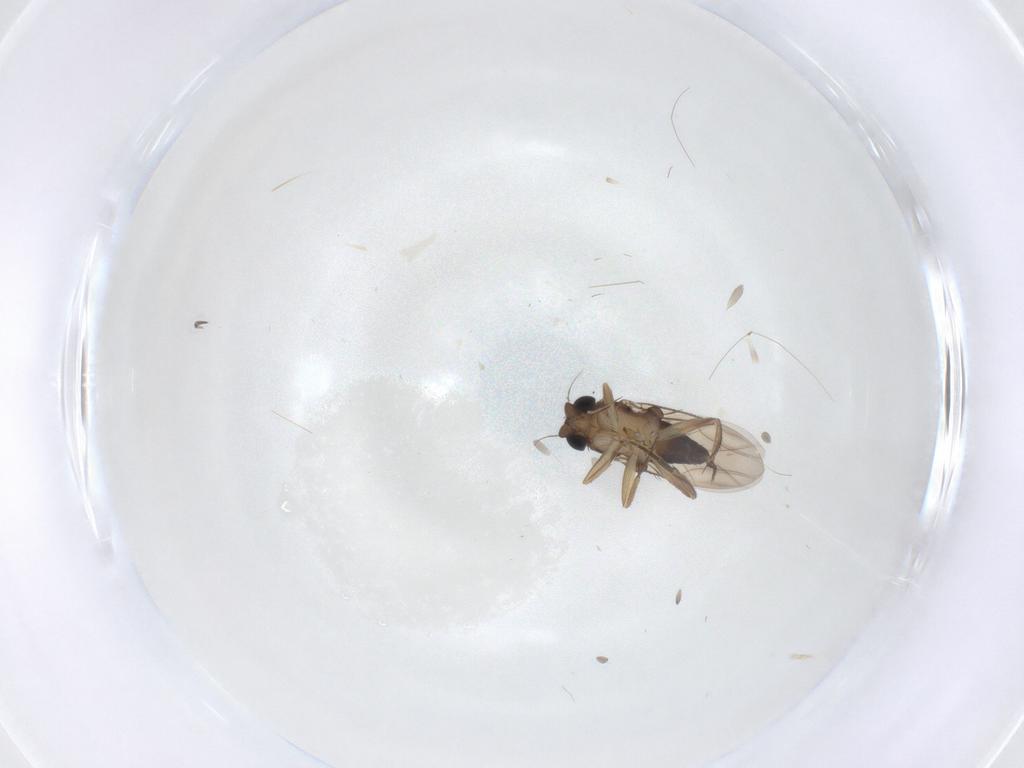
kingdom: Animalia
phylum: Arthropoda
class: Insecta
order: Diptera
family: Phoridae
